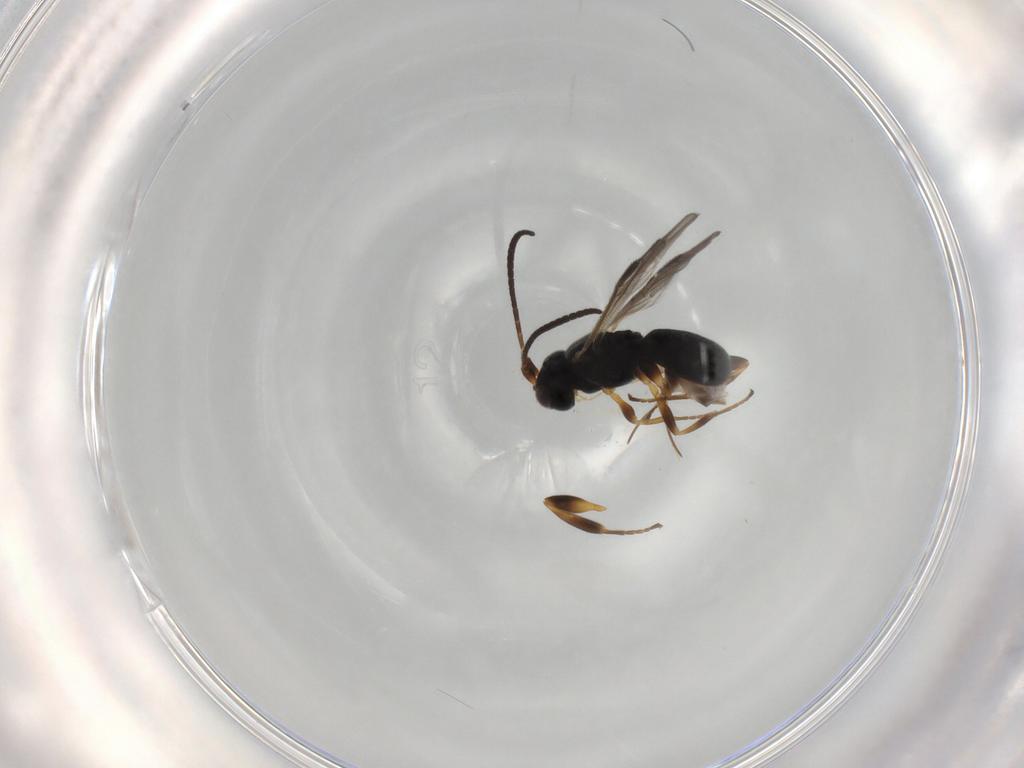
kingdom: Animalia
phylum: Arthropoda
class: Insecta
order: Hymenoptera
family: Braconidae
